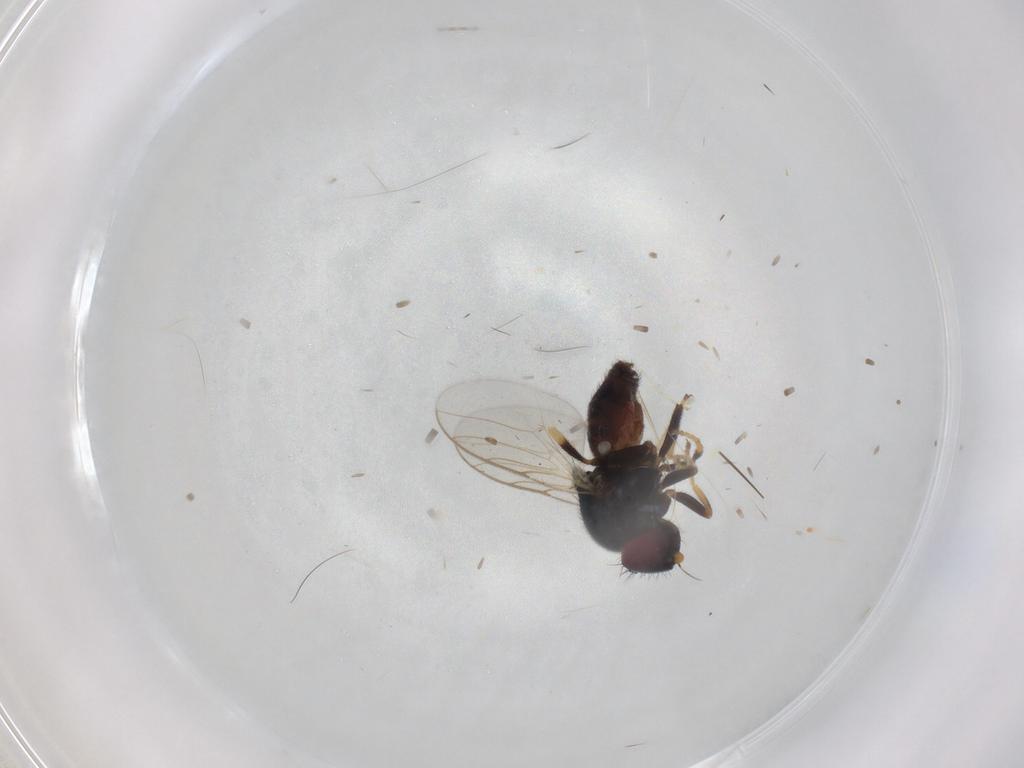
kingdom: Animalia
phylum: Arthropoda
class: Insecta
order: Diptera
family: Chloropidae
